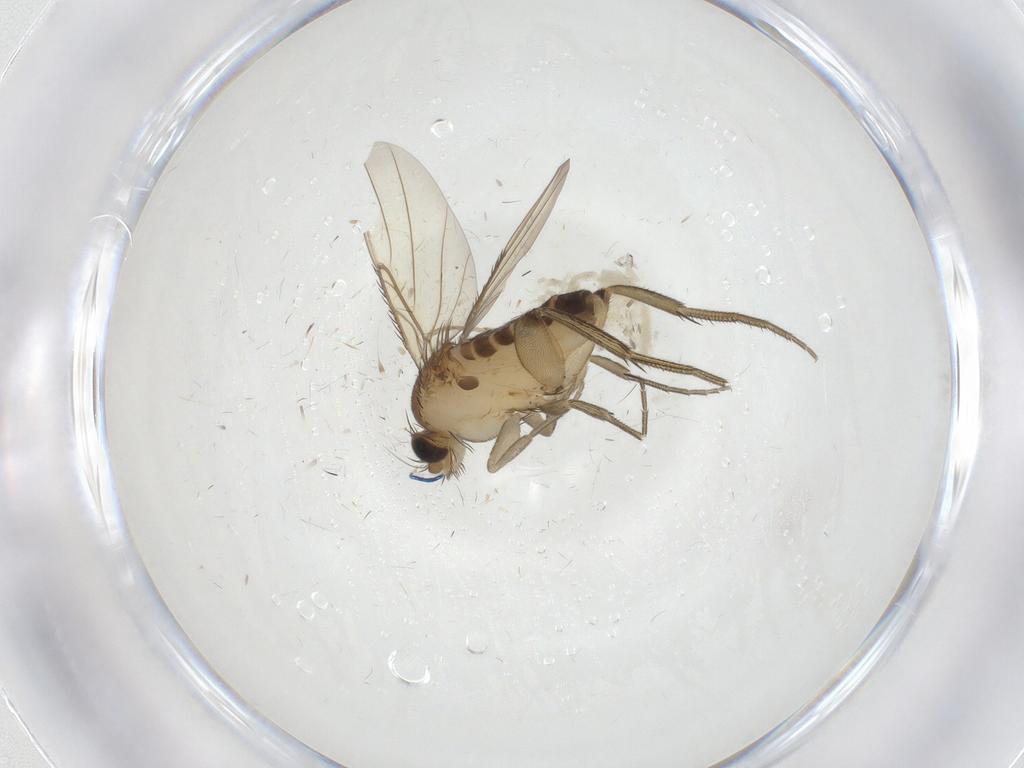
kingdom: Animalia
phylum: Arthropoda
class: Insecta
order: Diptera
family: Phoridae
